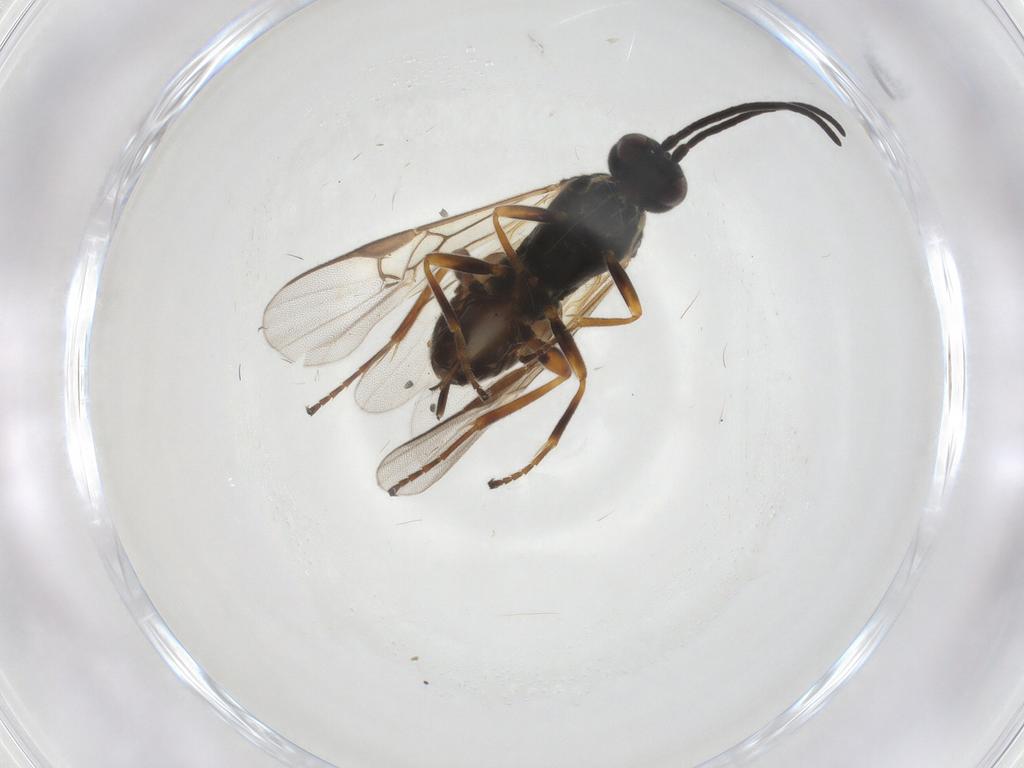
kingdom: Animalia
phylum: Arthropoda
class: Insecta
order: Hymenoptera
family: Braconidae
